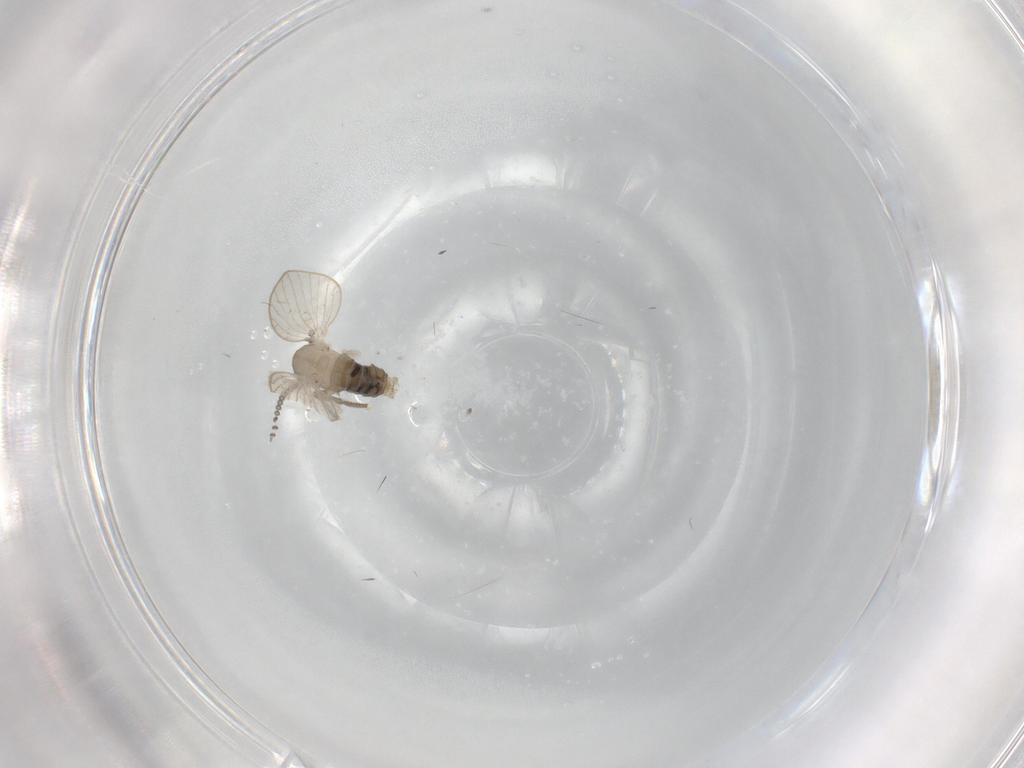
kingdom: Animalia
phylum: Arthropoda
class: Insecta
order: Diptera
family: Psychodidae
